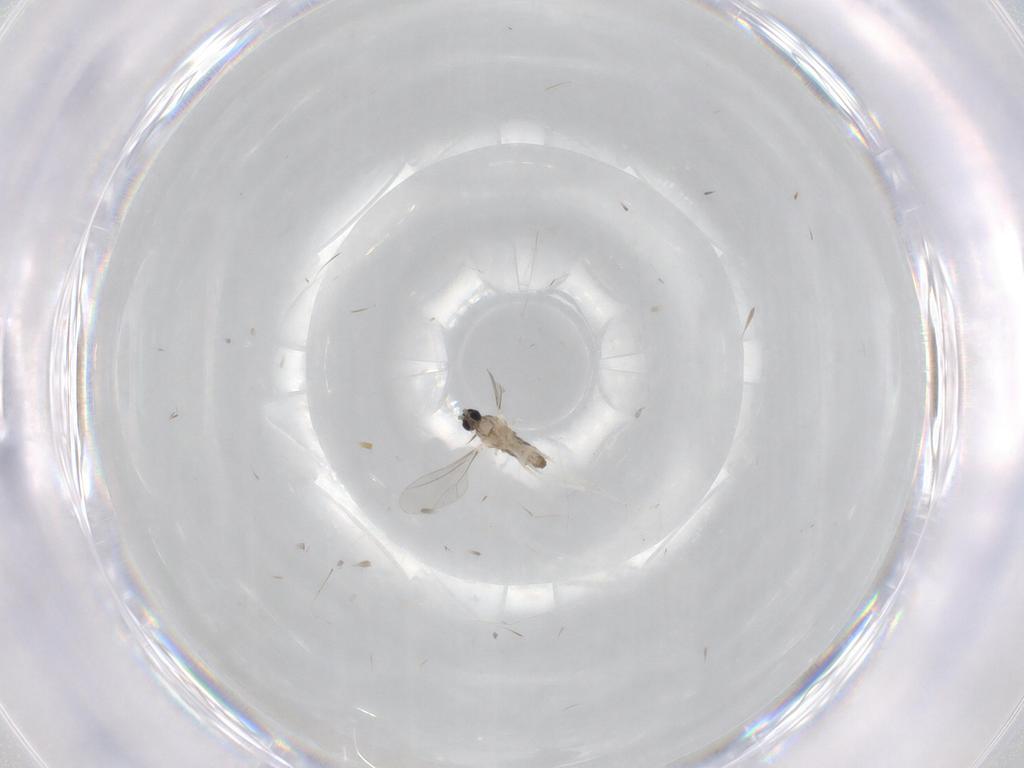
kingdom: Animalia
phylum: Arthropoda
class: Insecta
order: Diptera
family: Cecidomyiidae
